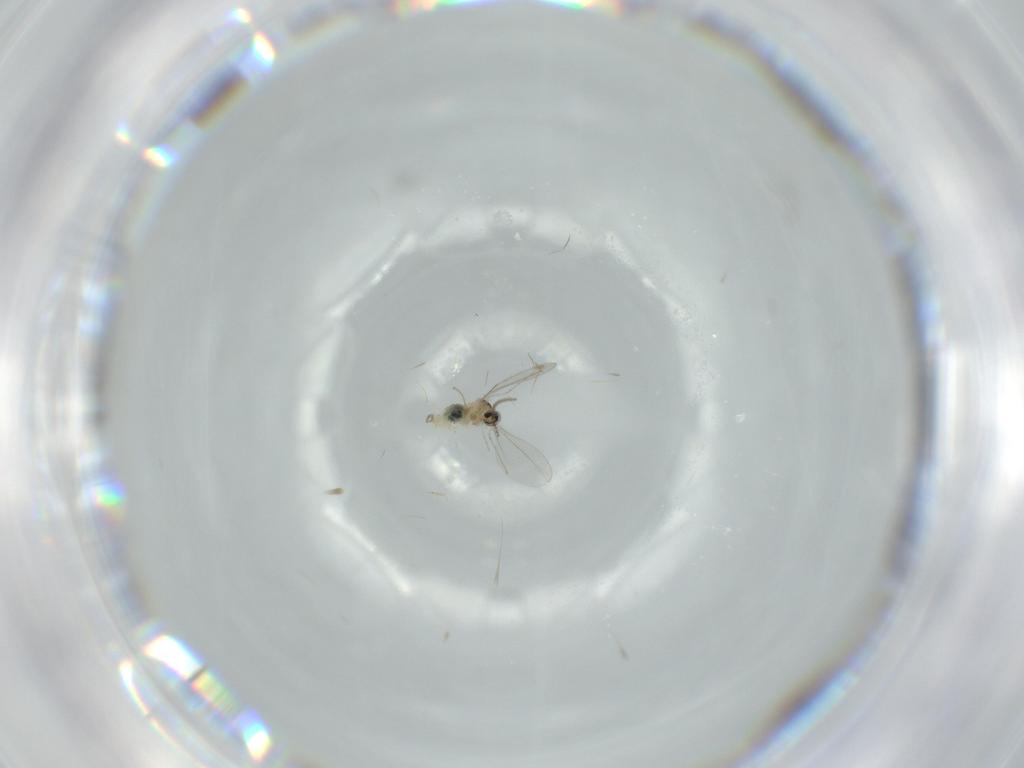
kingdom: Animalia
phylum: Arthropoda
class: Insecta
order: Diptera
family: Cecidomyiidae
